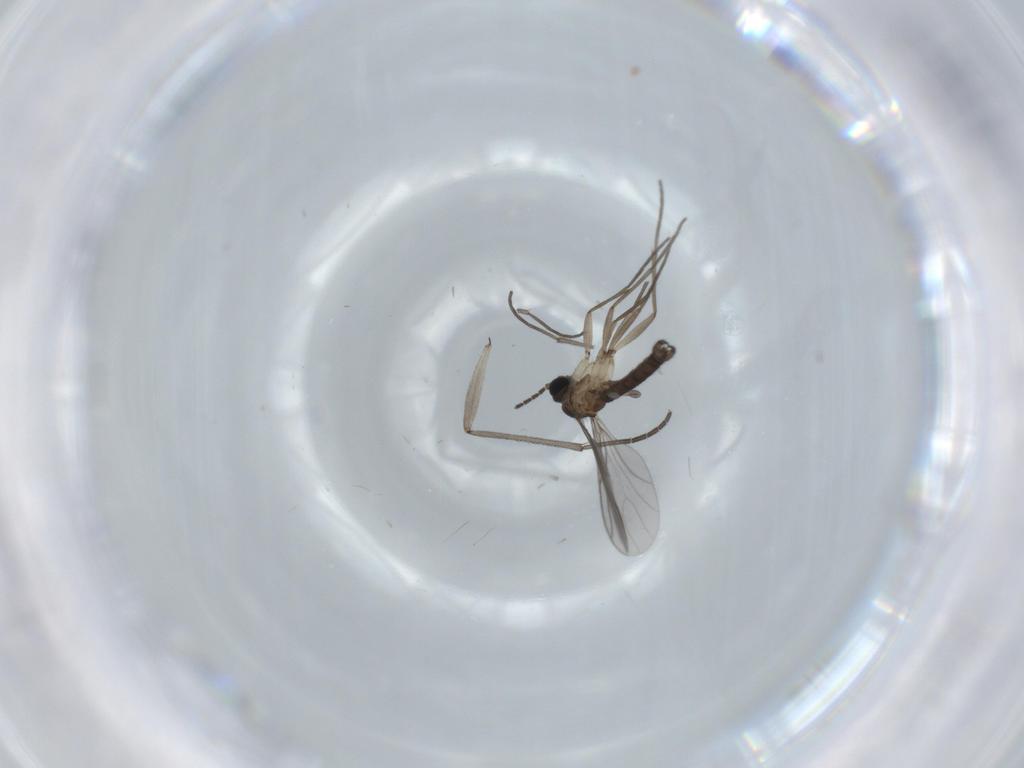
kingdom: Animalia
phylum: Arthropoda
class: Insecta
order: Diptera
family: Sciaridae
